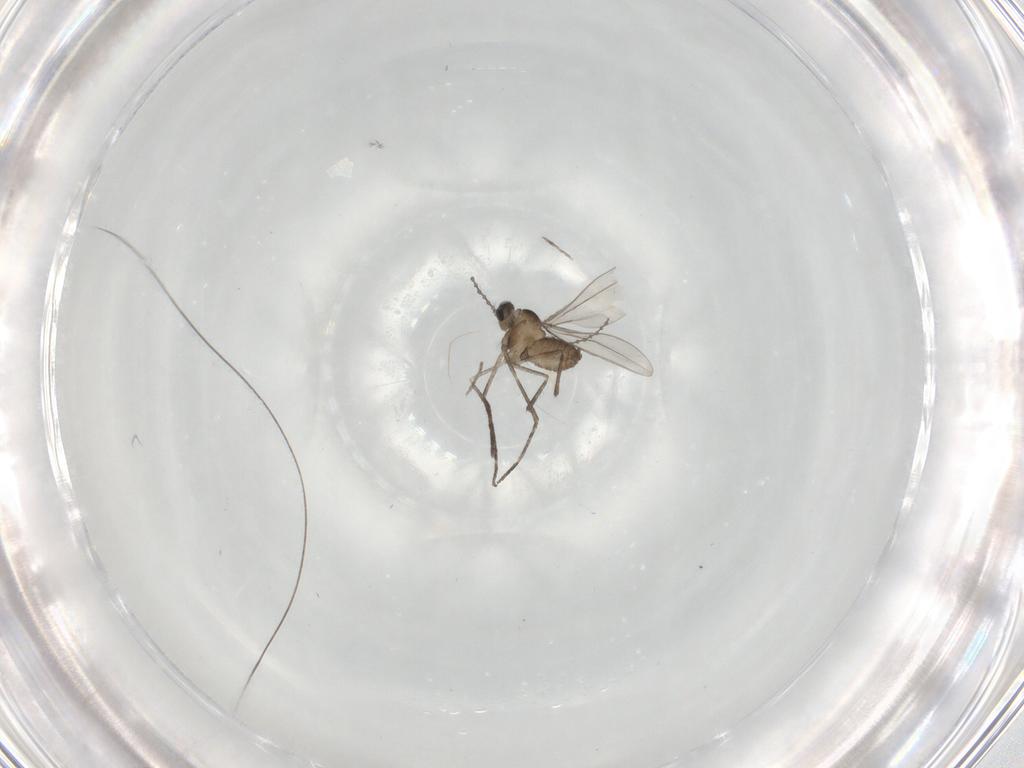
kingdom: Animalia
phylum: Arthropoda
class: Insecta
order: Diptera
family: Cecidomyiidae
